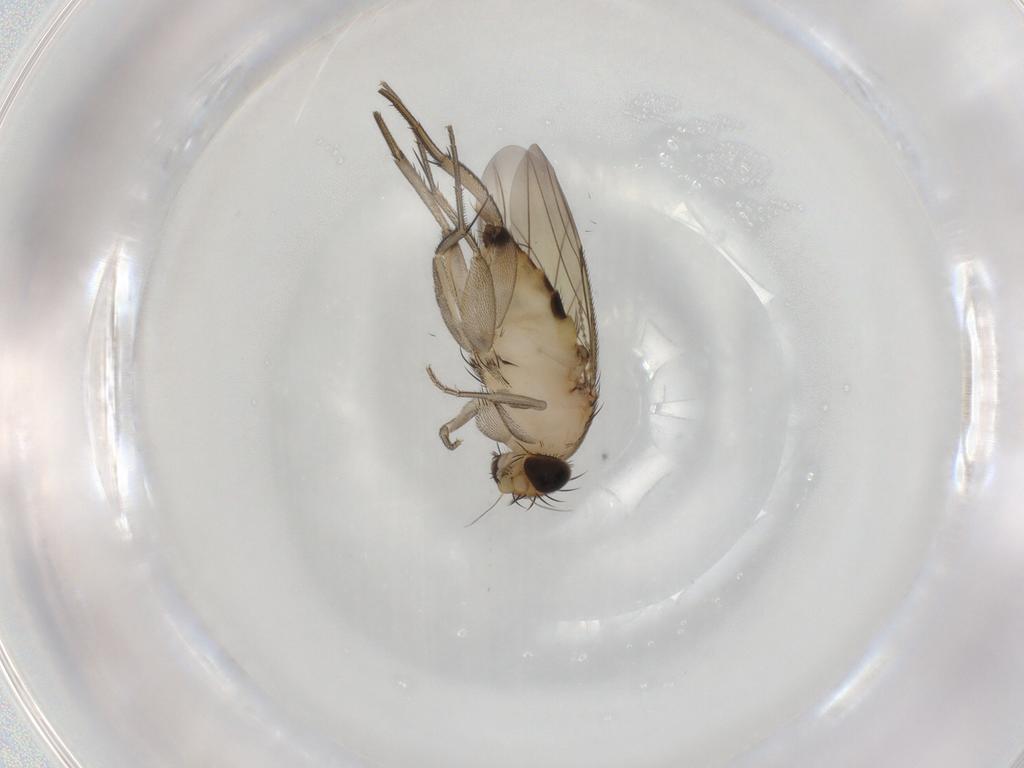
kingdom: Animalia
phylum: Arthropoda
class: Insecta
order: Diptera
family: Phoridae
